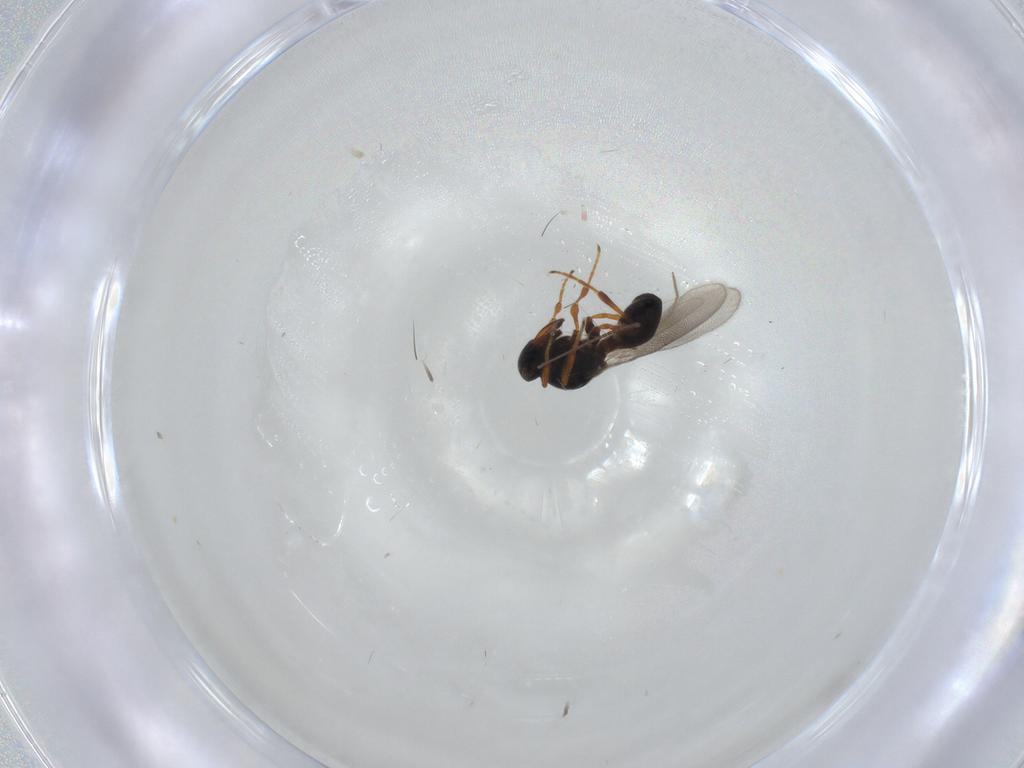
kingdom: Animalia
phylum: Arthropoda
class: Insecta
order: Hymenoptera
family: Platygastridae
